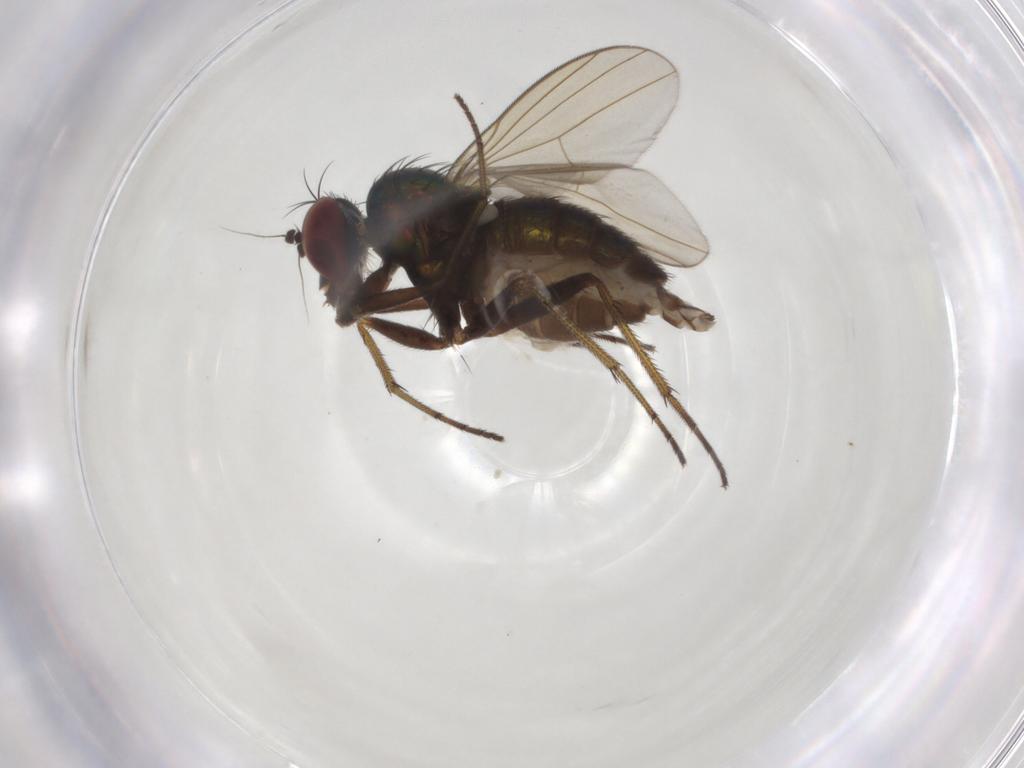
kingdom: Animalia
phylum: Arthropoda
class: Insecta
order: Diptera
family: Dolichopodidae
